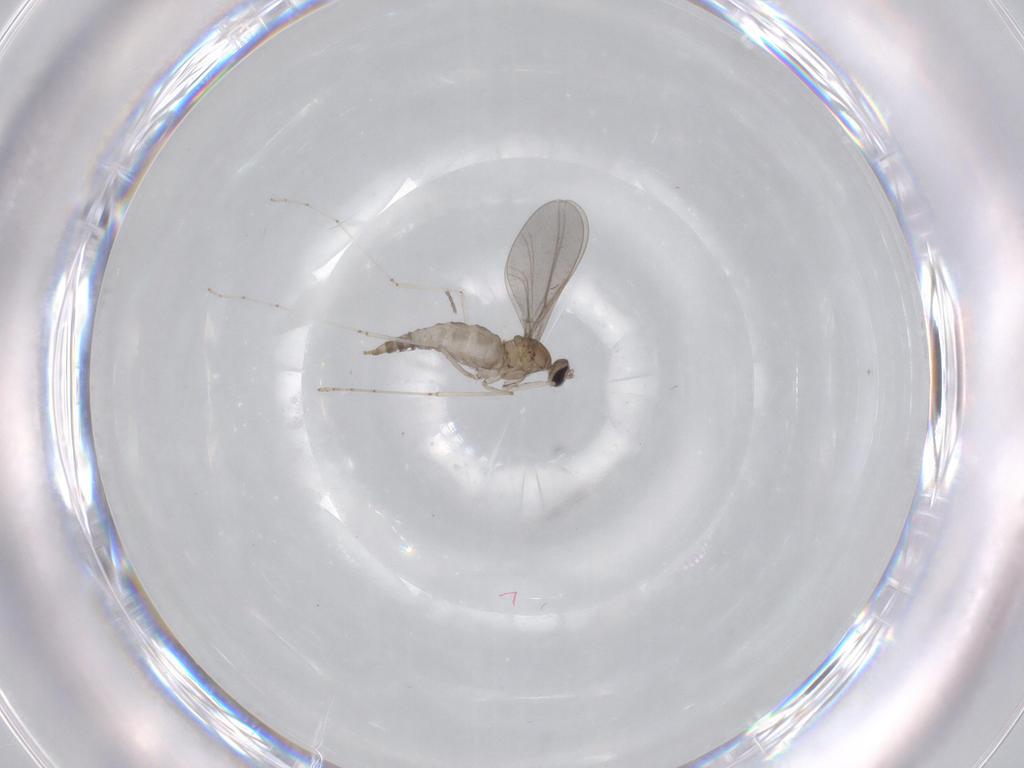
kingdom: Animalia
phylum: Arthropoda
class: Insecta
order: Diptera
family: Cecidomyiidae
